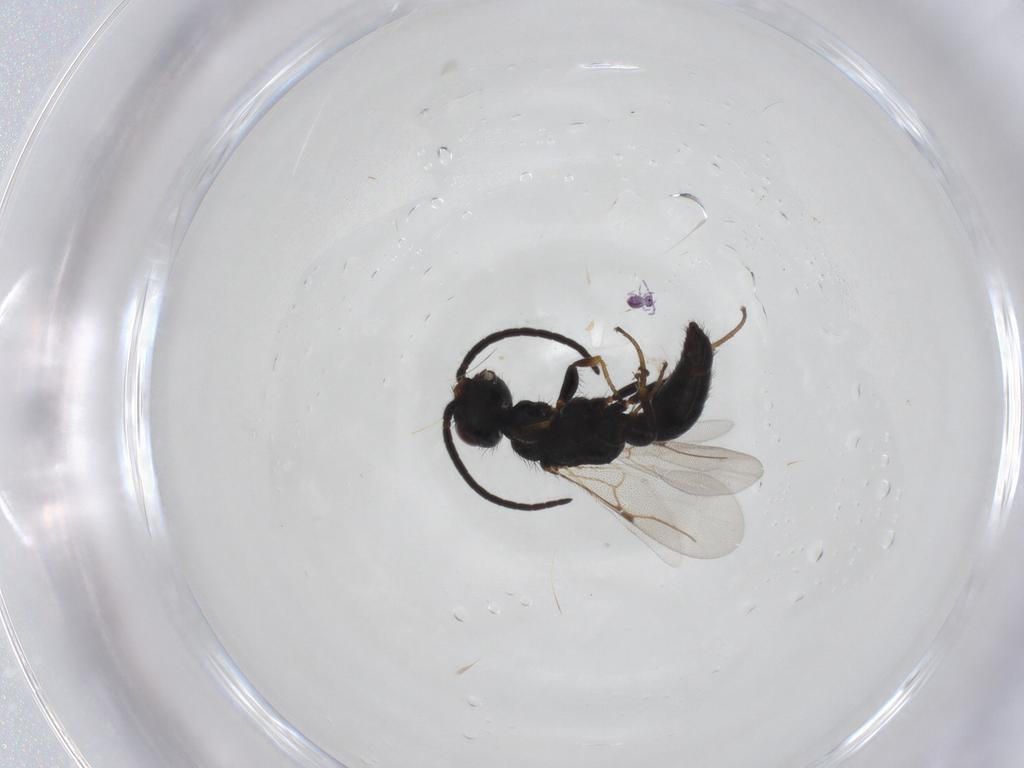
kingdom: Animalia
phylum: Arthropoda
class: Insecta
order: Hymenoptera
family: Bethylidae
